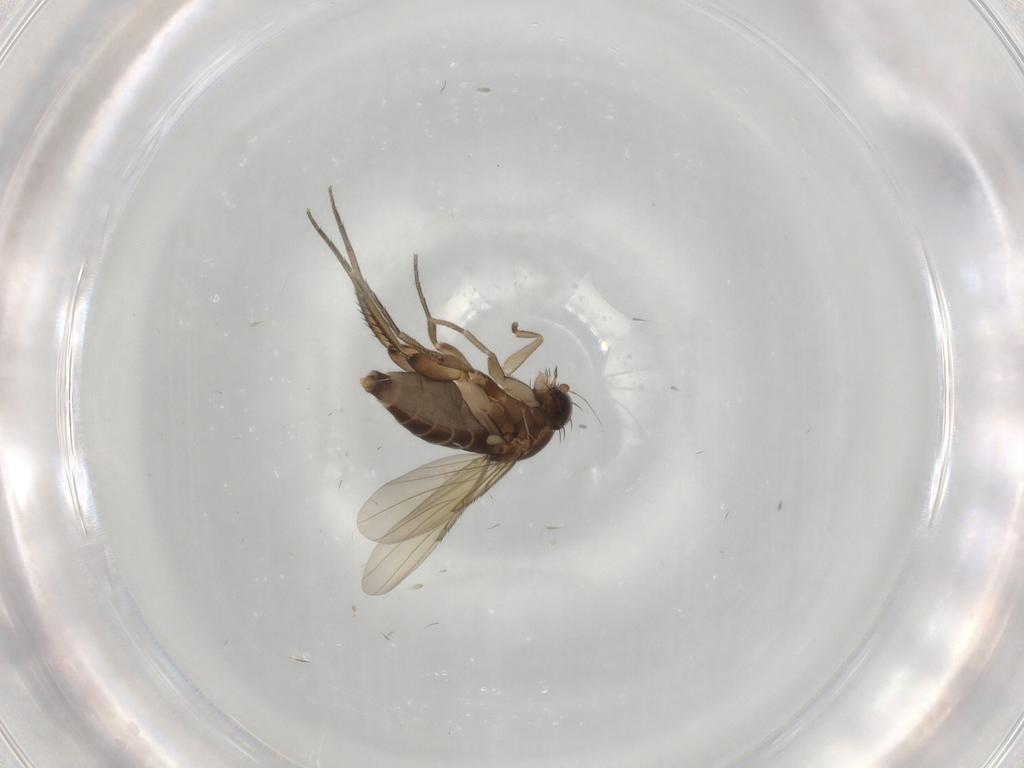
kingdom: Animalia
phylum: Arthropoda
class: Insecta
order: Diptera
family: Phoridae
